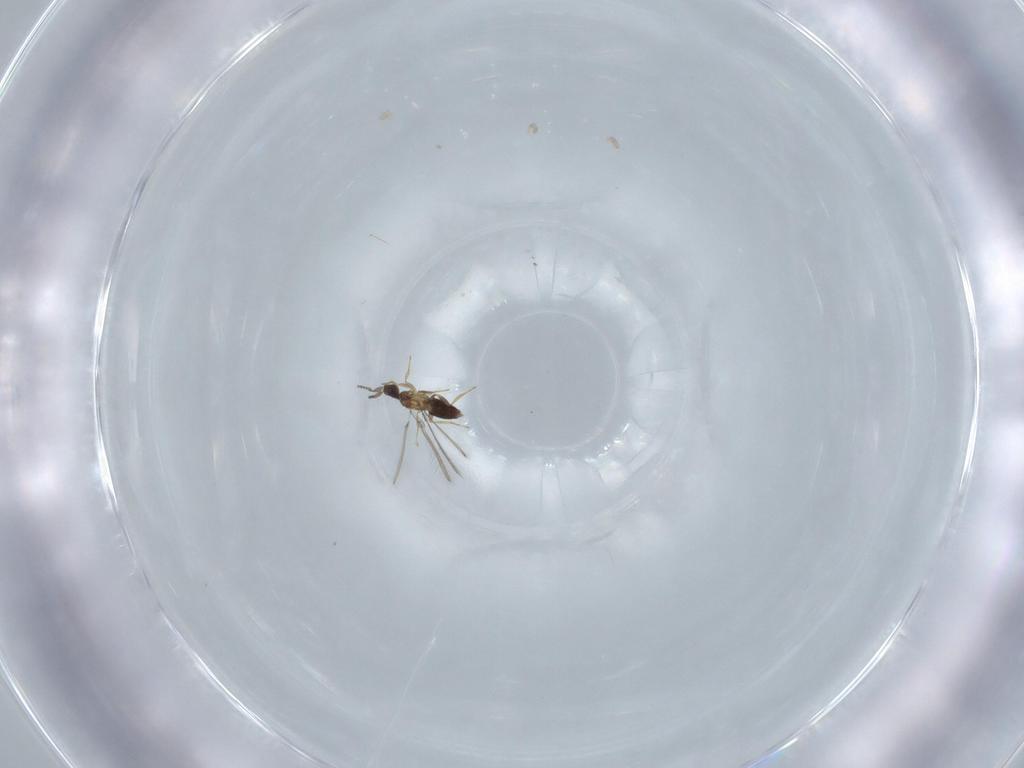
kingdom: Animalia
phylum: Arthropoda
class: Insecta
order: Hymenoptera
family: Mymaridae
